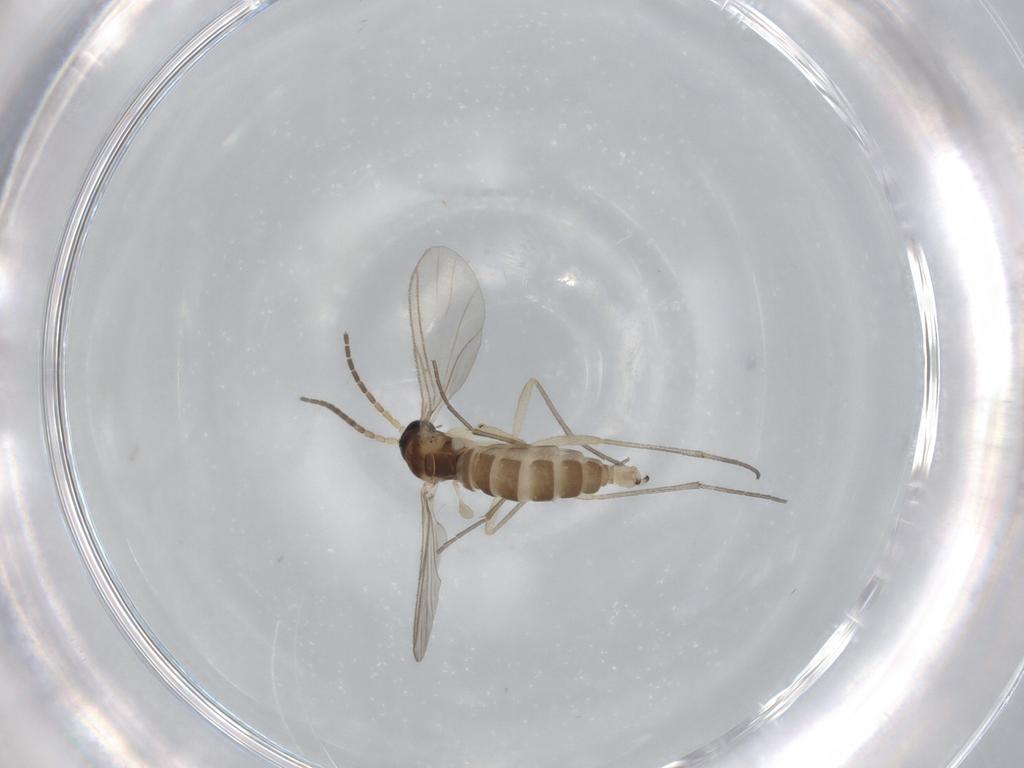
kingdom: Animalia
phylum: Arthropoda
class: Insecta
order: Diptera
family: Sciaridae
